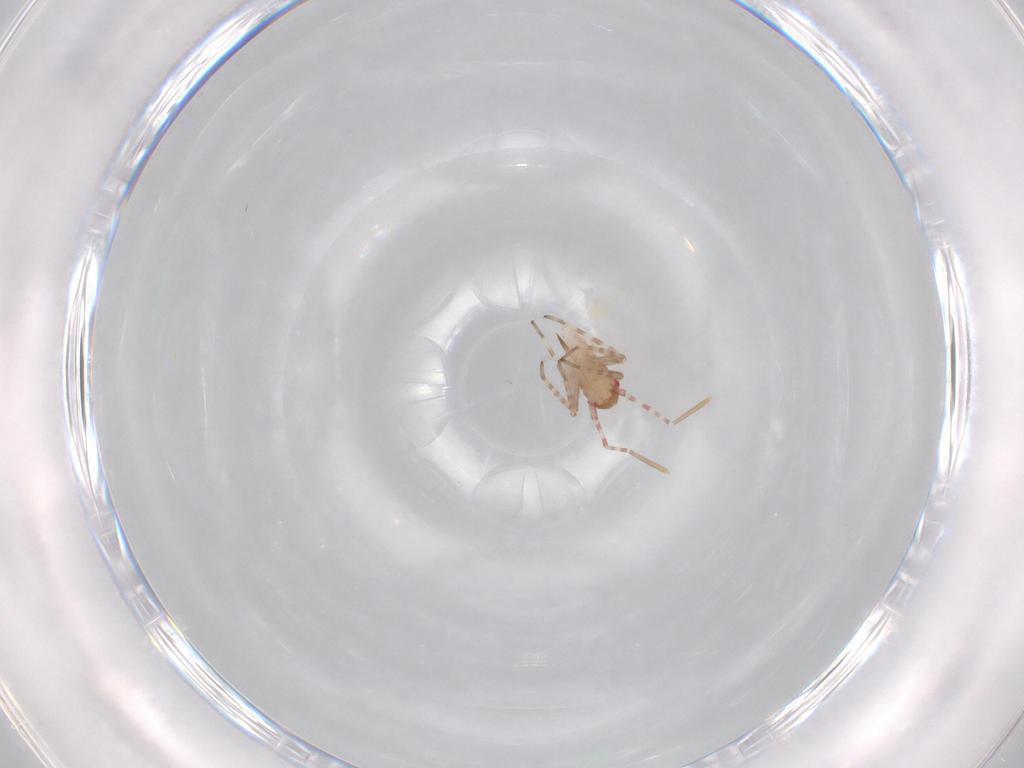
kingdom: Animalia
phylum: Arthropoda
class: Insecta
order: Hemiptera
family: Miridae
